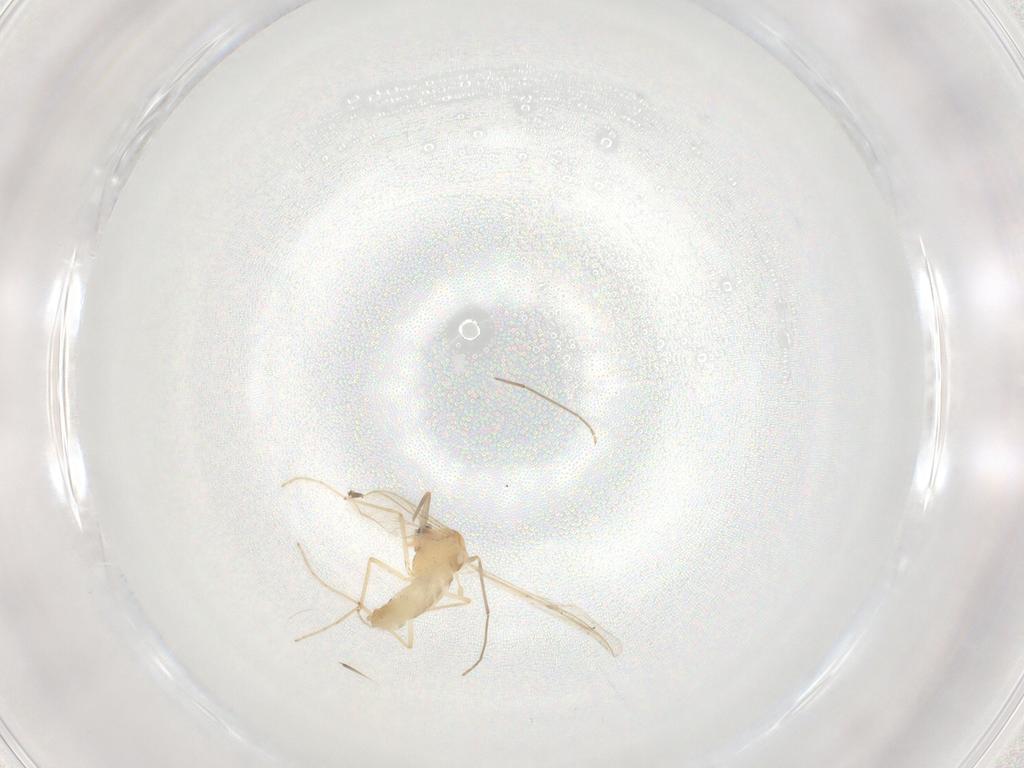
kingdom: Animalia
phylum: Arthropoda
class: Insecta
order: Diptera
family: Chironomidae
